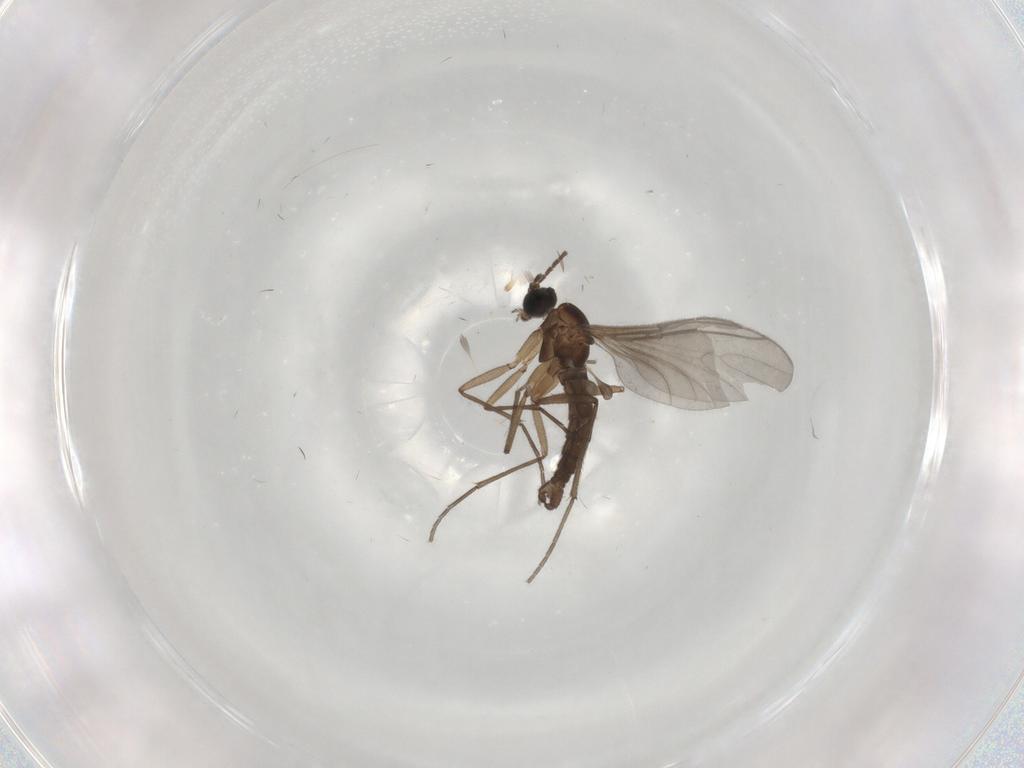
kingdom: Animalia
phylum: Arthropoda
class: Insecta
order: Diptera
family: Sciaridae
